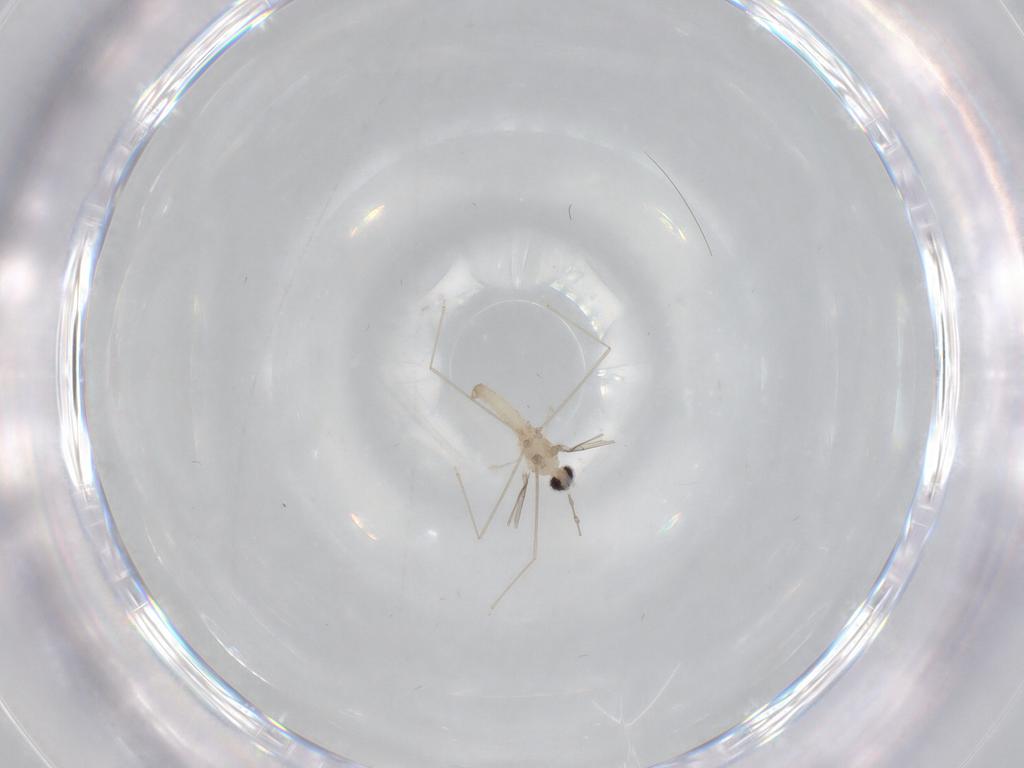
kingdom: Animalia
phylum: Arthropoda
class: Insecta
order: Diptera
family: Cecidomyiidae
